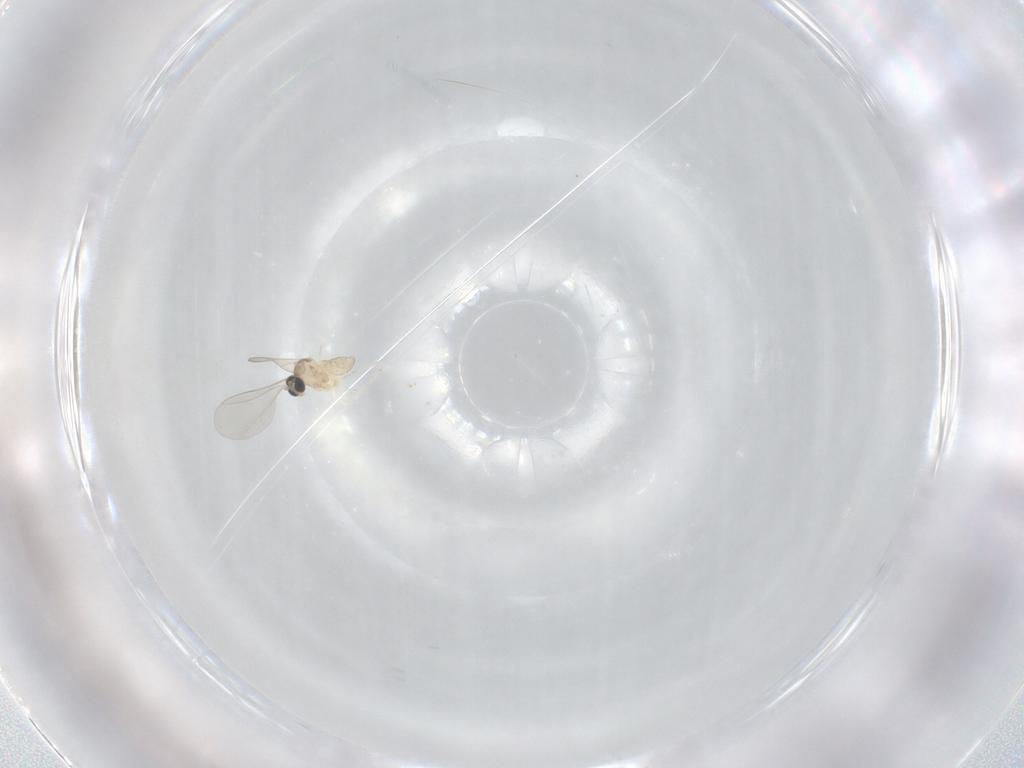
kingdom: Animalia
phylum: Arthropoda
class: Insecta
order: Diptera
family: Cecidomyiidae
